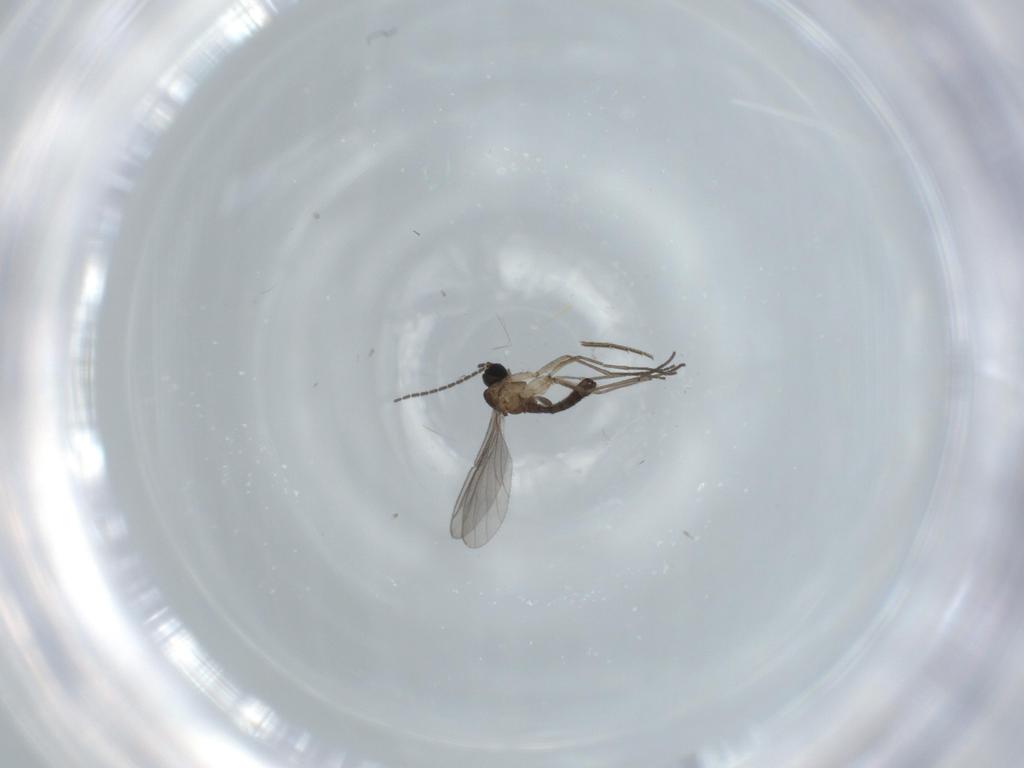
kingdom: Animalia
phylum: Arthropoda
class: Insecta
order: Diptera
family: Sciaridae
